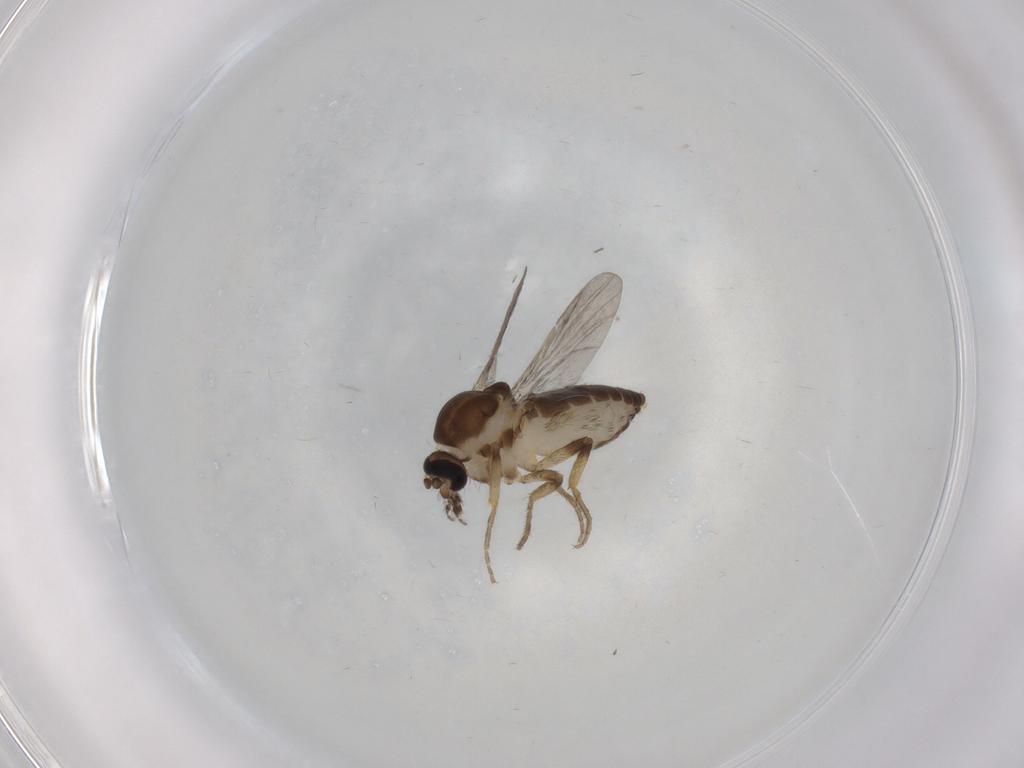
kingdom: Animalia
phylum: Arthropoda
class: Insecta
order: Diptera
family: Ceratopogonidae
